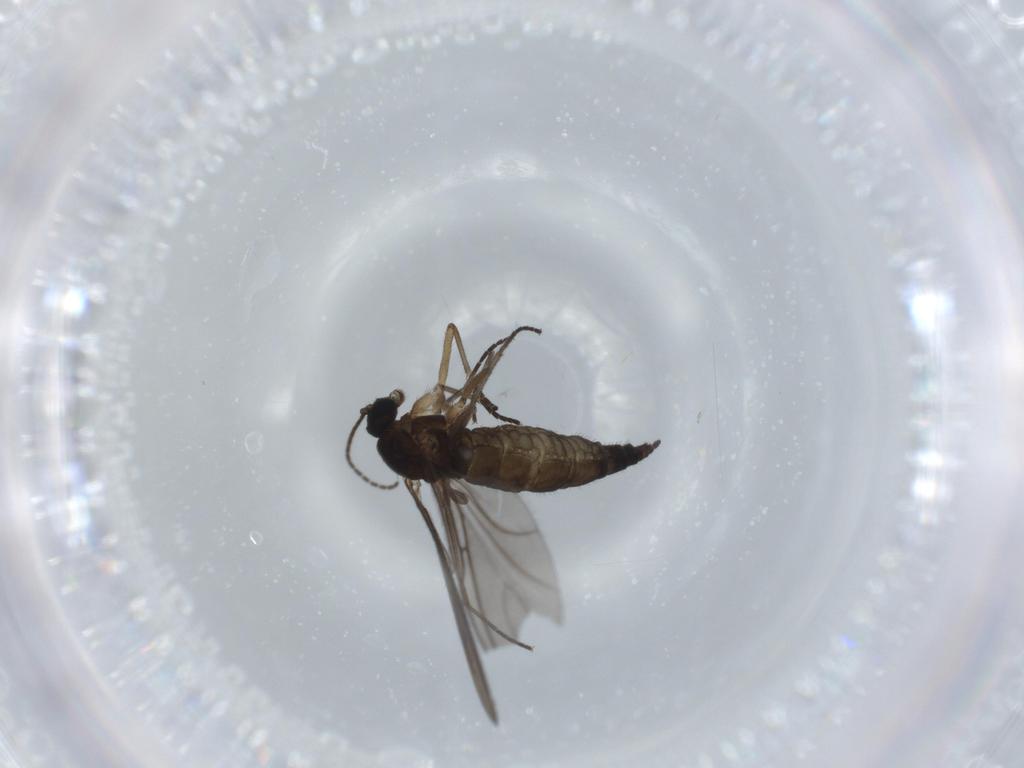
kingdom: Animalia
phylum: Arthropoda
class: Insecta
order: Diptera
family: Sciaridae
